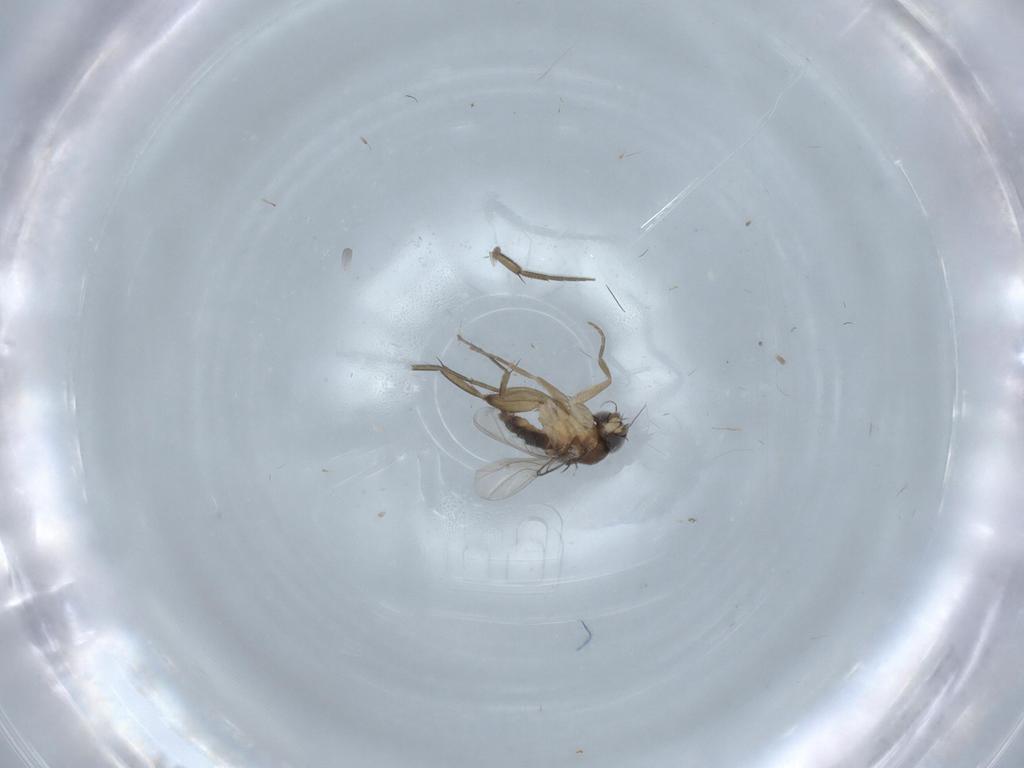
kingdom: Animalia
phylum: Arthropoda
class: Insecta
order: Diptera
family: Phoridae
